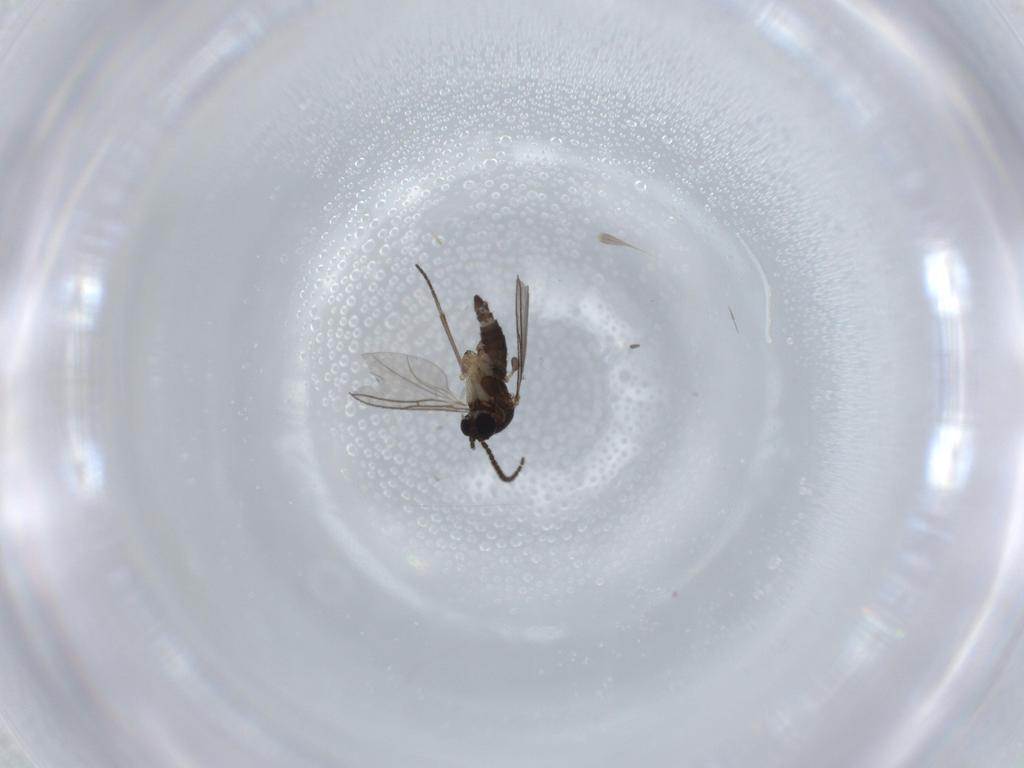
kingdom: Animalia
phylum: Arthropoda
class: Insecta
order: Diptera
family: Sciaridae
